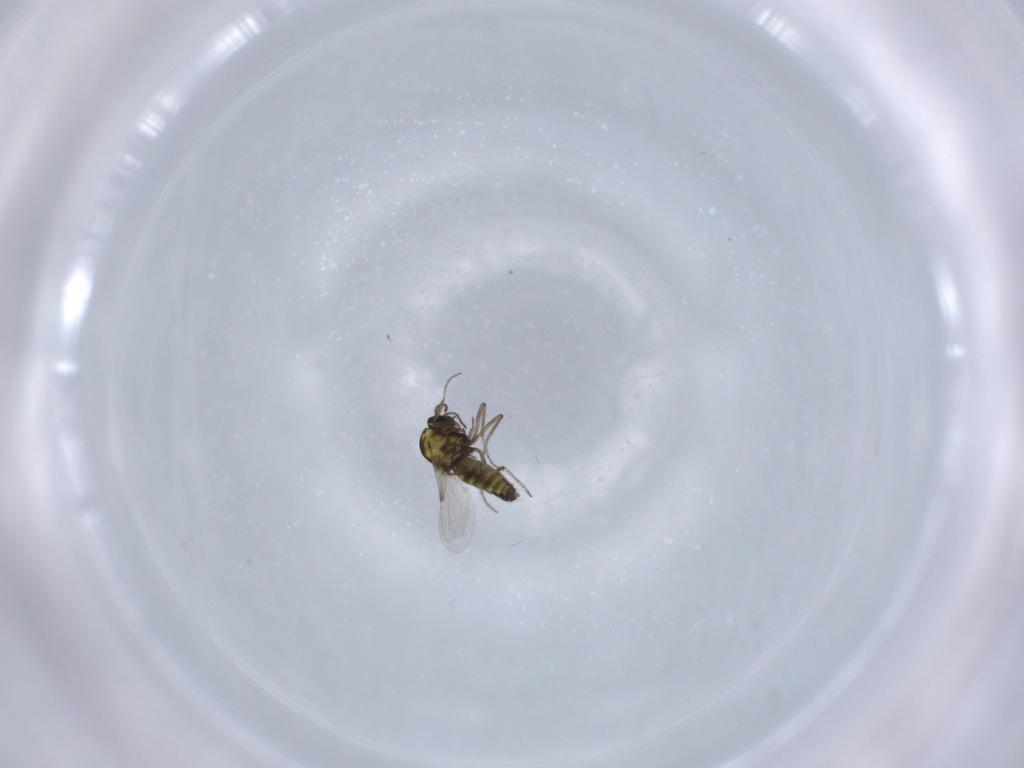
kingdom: Animalia
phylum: Arthropoda
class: Insecta
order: Diptera
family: Ceratopogonidae
